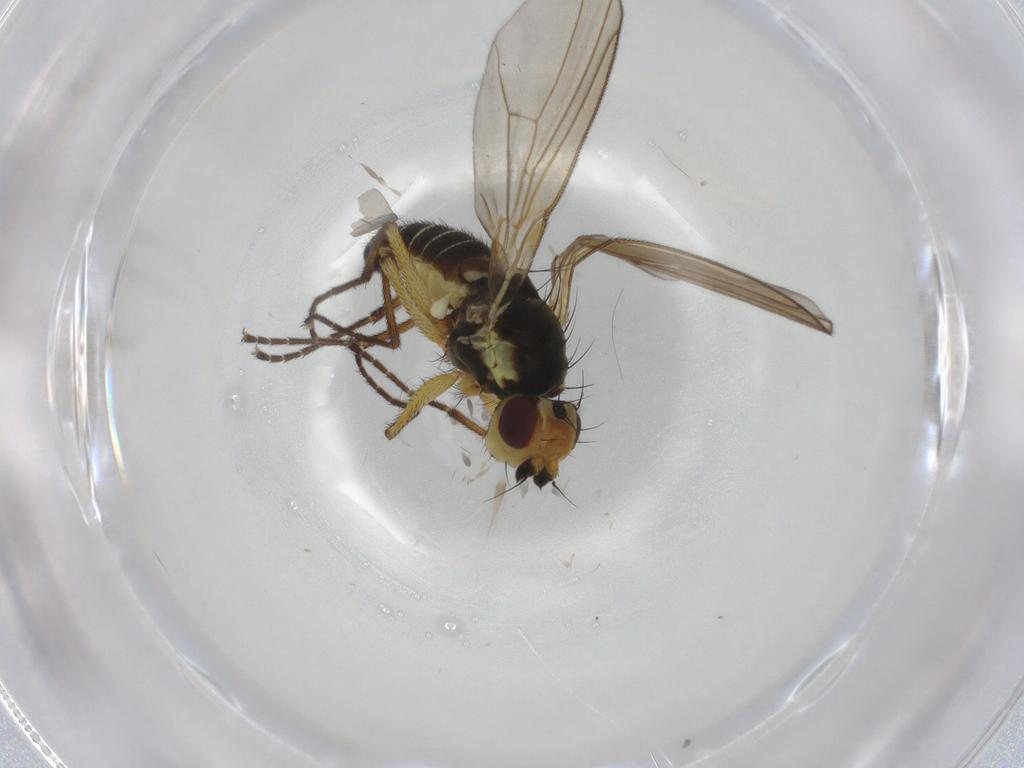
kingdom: Animalia
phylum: Arthropoda
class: Insecta
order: Diptera
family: Agromyzidae
